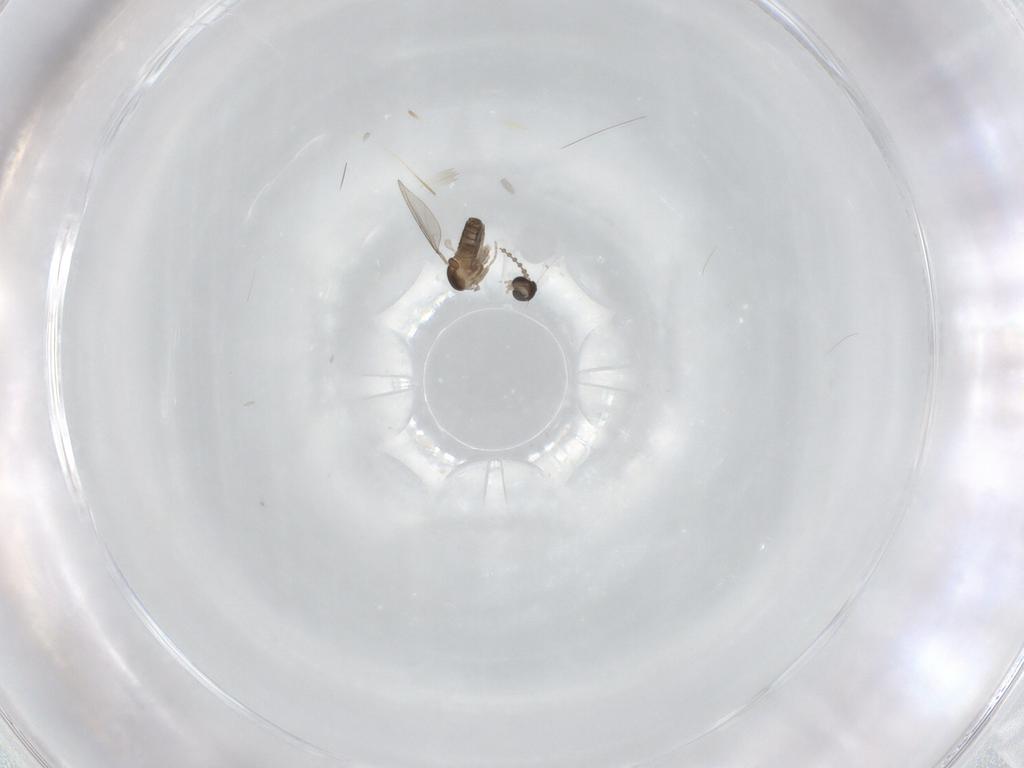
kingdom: Animalia
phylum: Arthropoda
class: Insecta
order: Diptera
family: Cecidomyiidae
